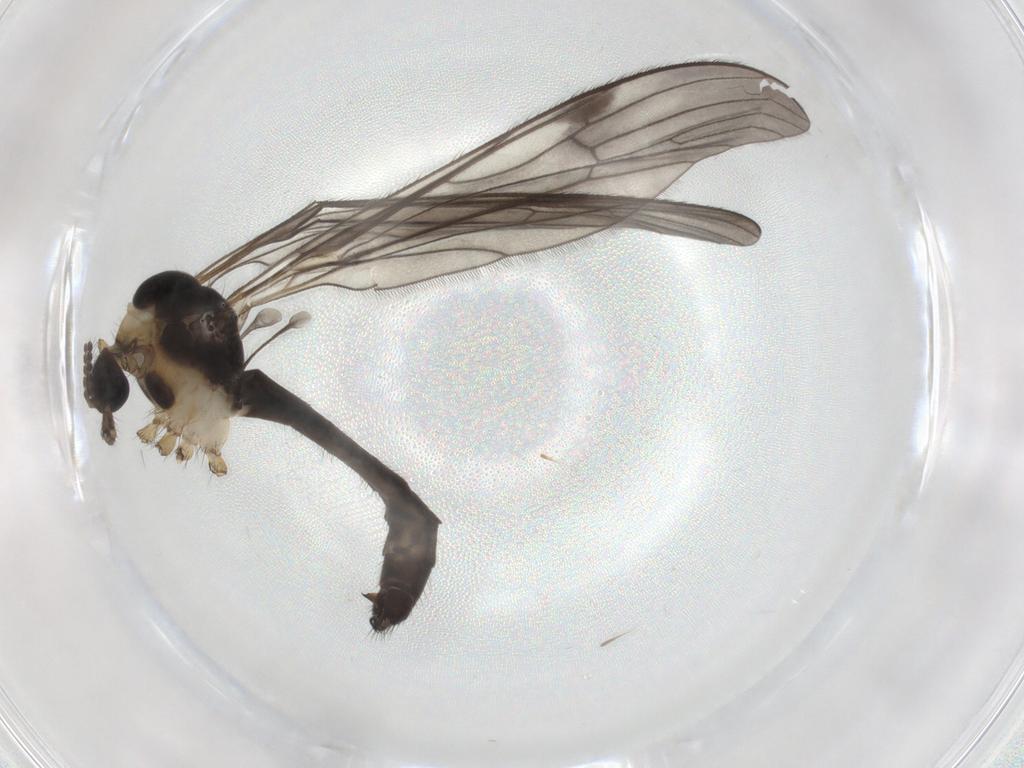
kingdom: Animalia
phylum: Arthropoda
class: Insecta
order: Diptera
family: Limoniidae
